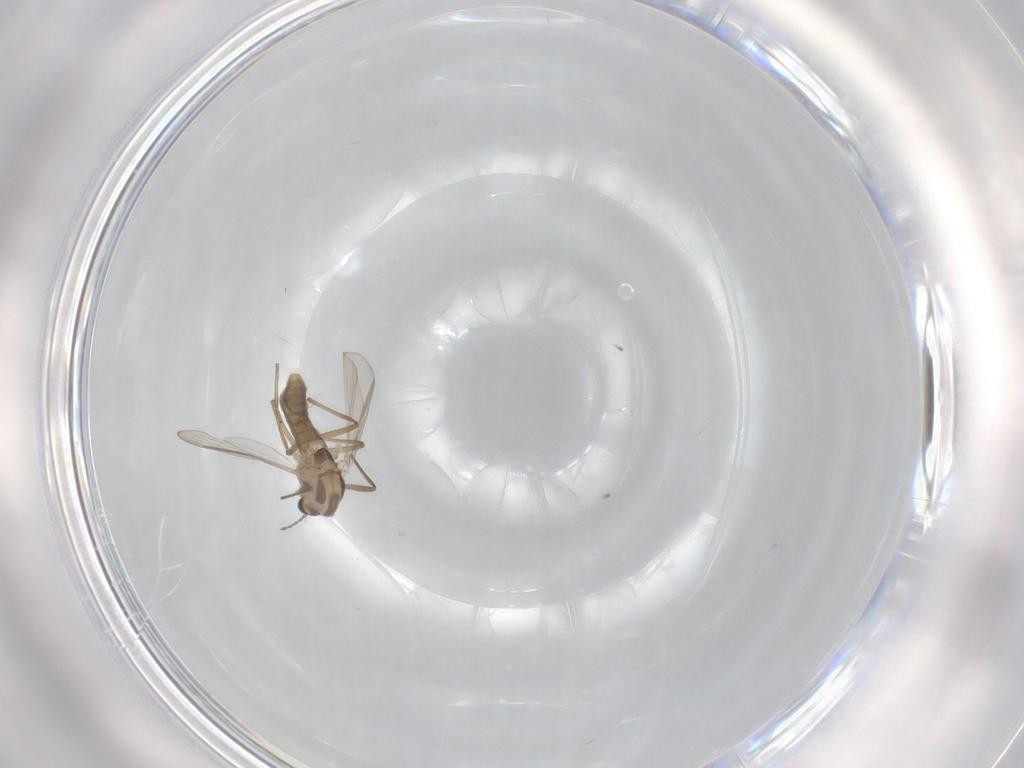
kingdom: Animalia
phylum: Arthropoda
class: Insecta
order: Diptera
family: Chironomidae
